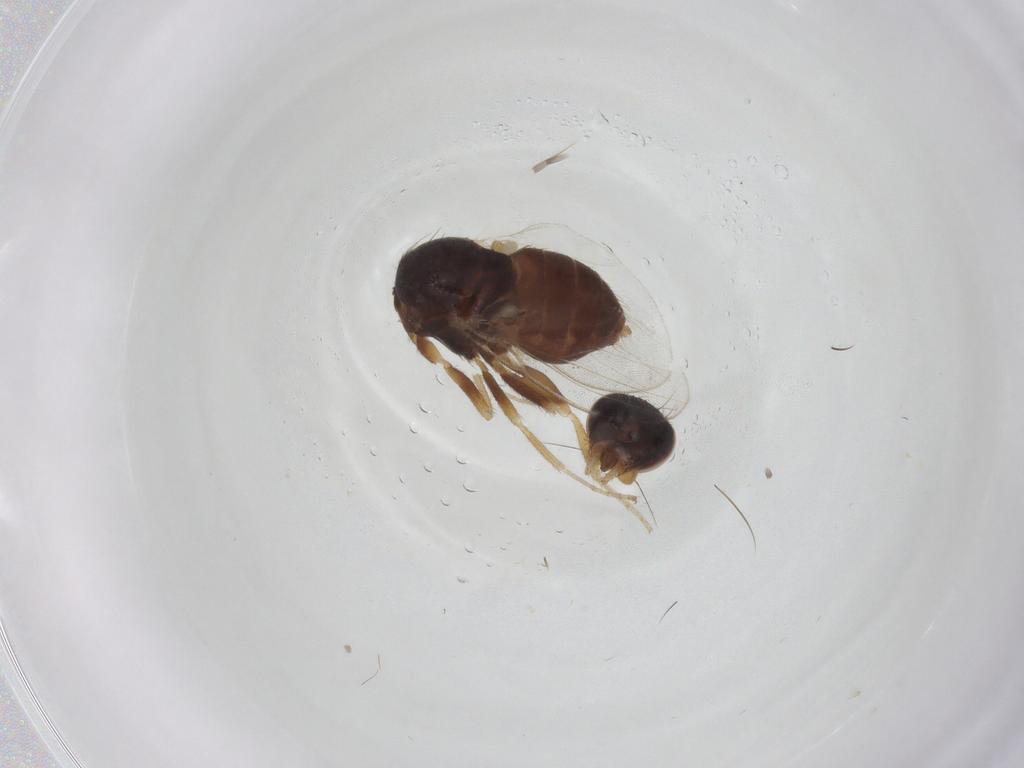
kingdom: Animalia
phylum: Arthropoda
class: Insecta
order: Diptera
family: Milichiidae
